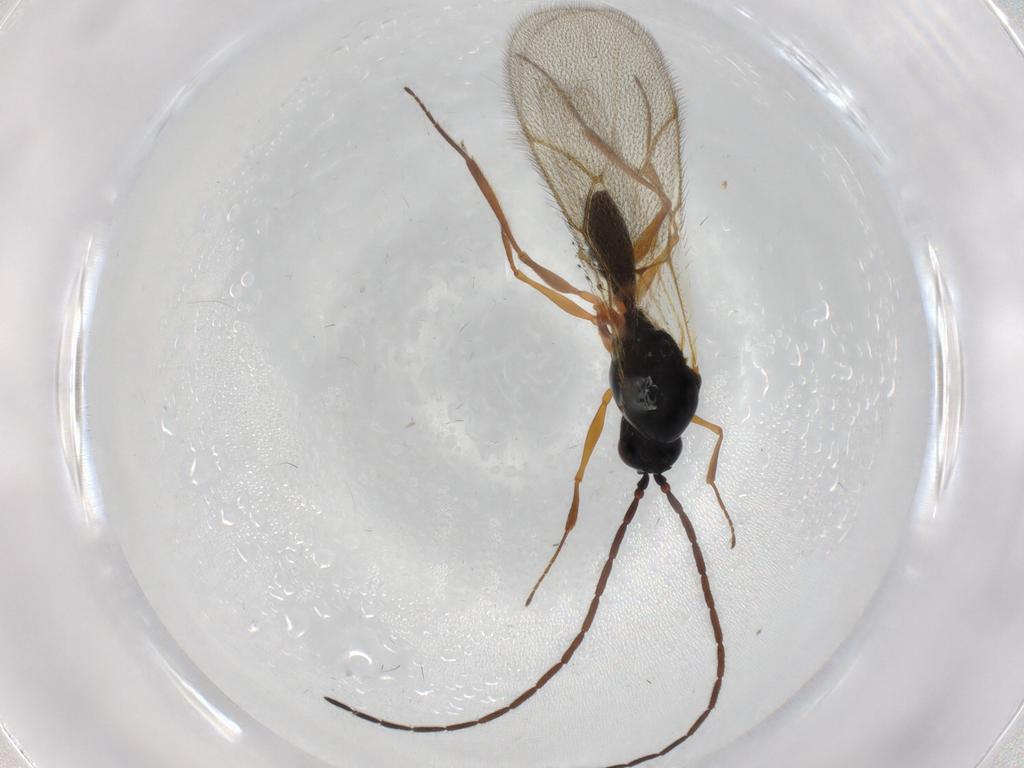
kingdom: Animalia
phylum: Arthropoda
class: Insecta
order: Hymenoptera
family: Figitidae
